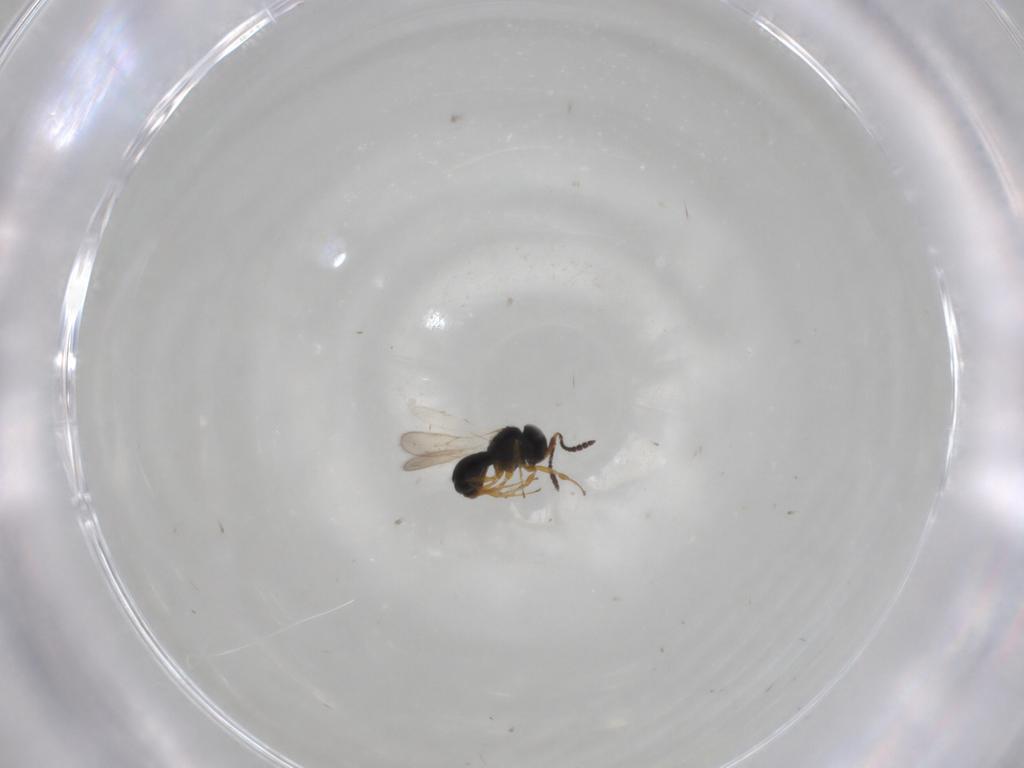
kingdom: Animalia
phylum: Arthropoda
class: Insecta
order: Hymenoptera
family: Scelionidae
